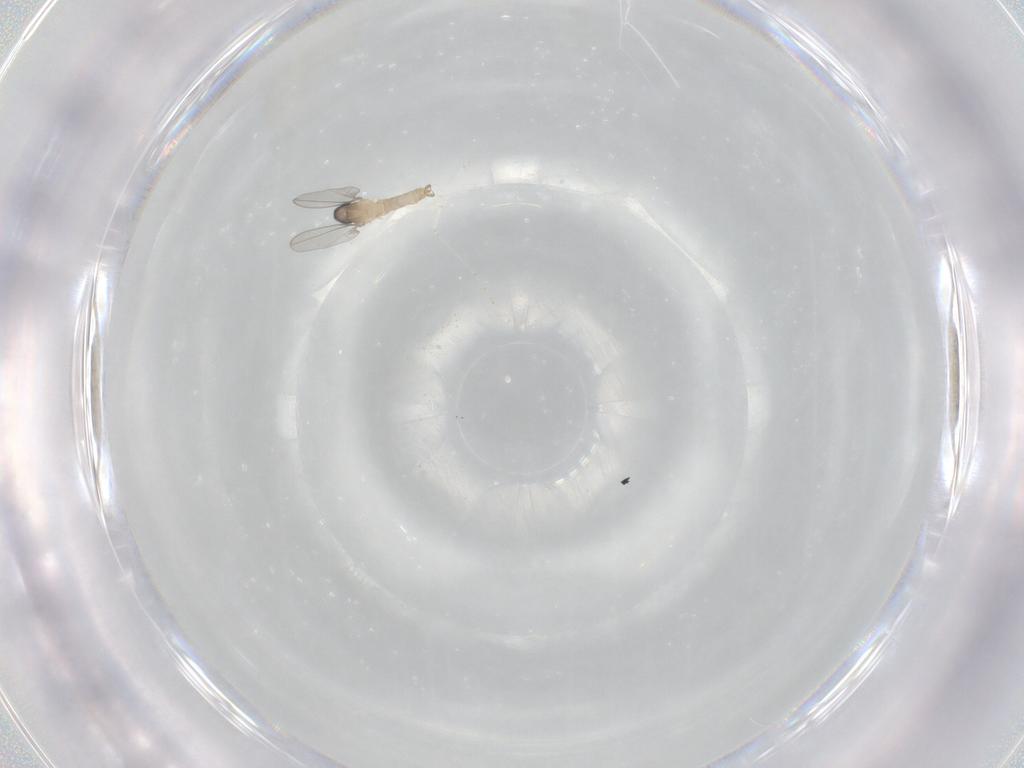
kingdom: Animalia
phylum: Arthropoda
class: Insecta
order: Diptera
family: Cecidomyiidae
